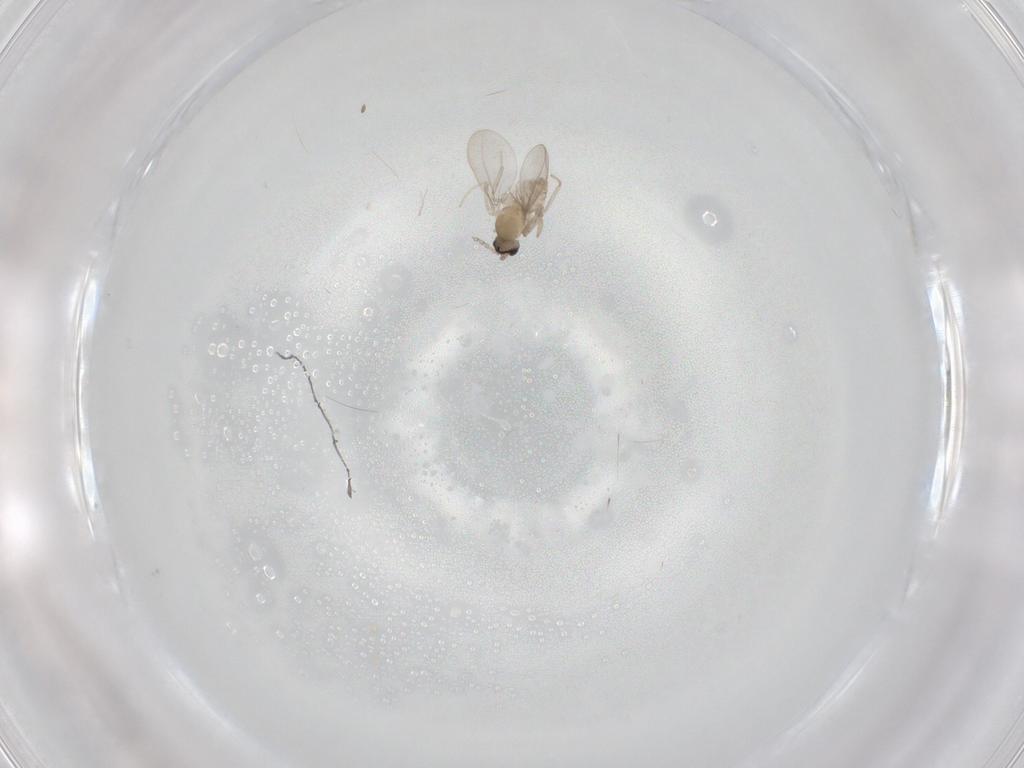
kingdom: Animalia
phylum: Arthropoda
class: Insecta
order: Diptera
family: Cecidomyiidae
